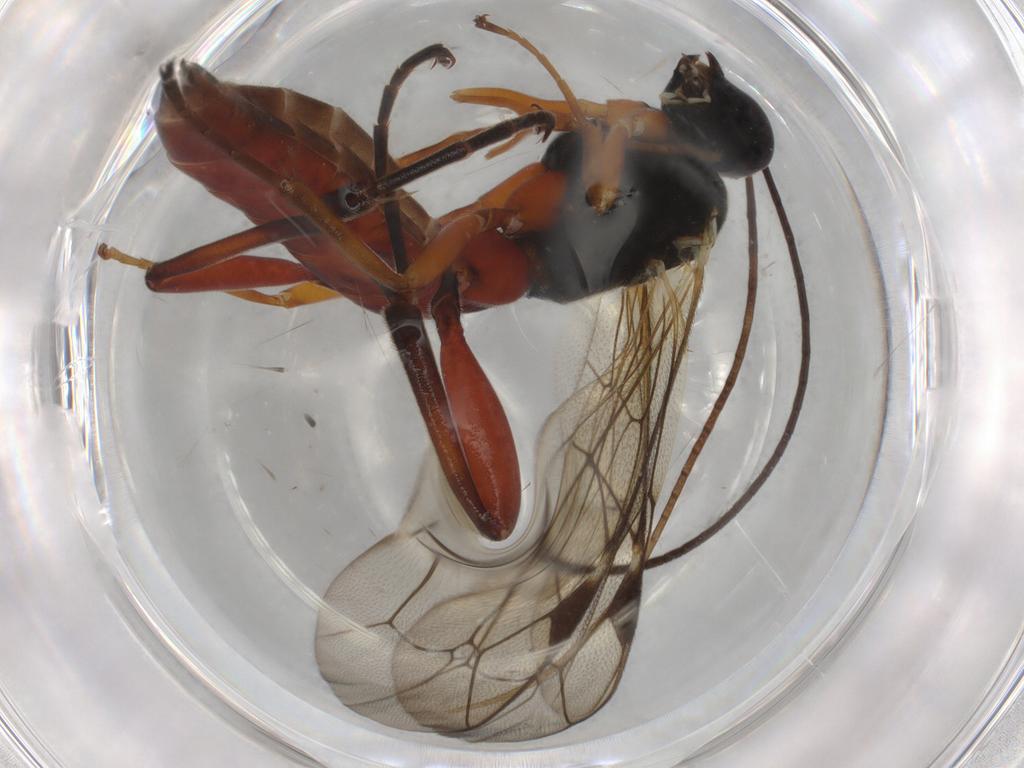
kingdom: Animalia
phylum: Arthropoda
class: Insecta
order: Hymenoptera
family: Ichneumonidae
